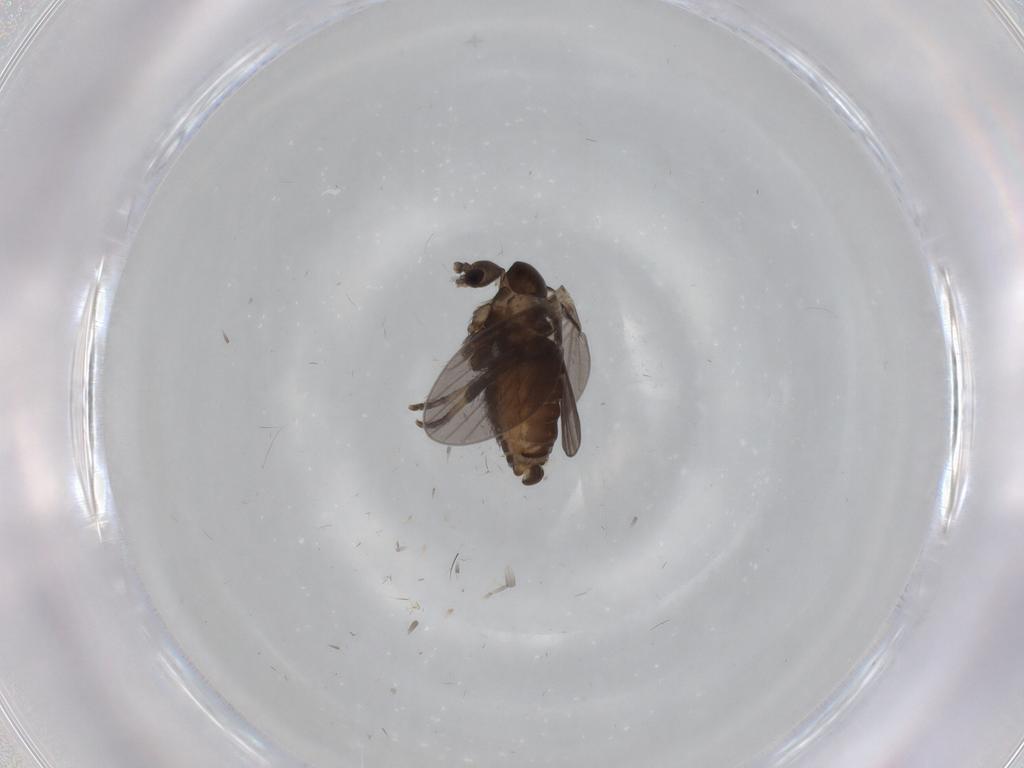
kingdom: Animalia
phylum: Arthropoda
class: Insecta
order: Diptera
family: Psychodidae
